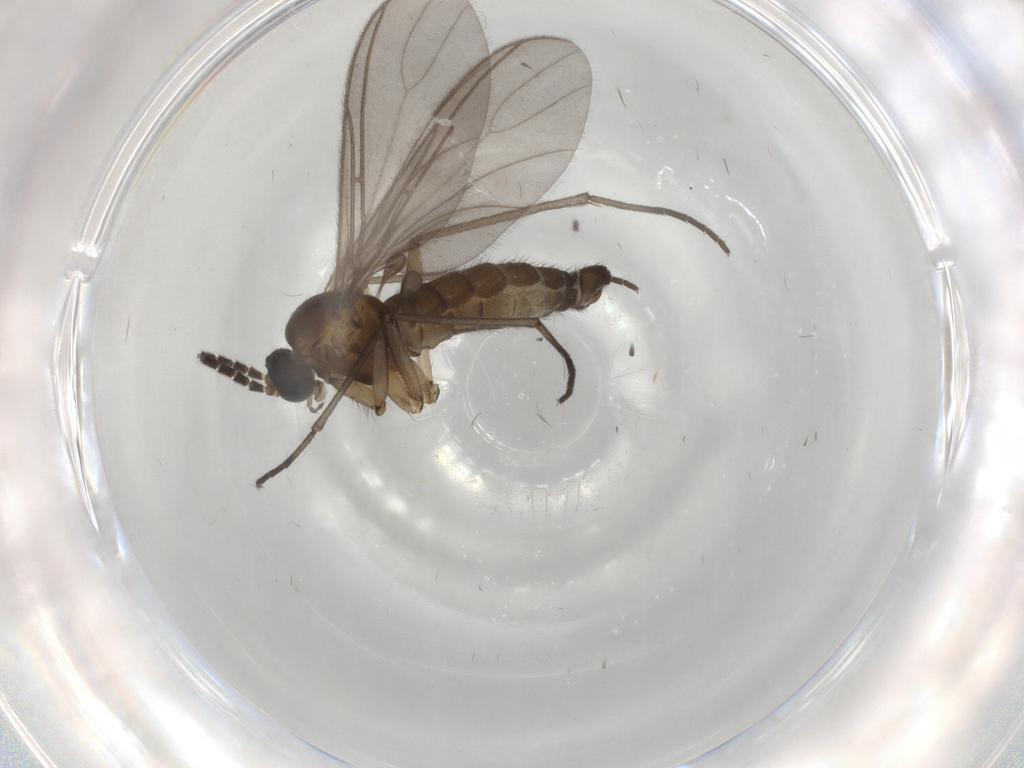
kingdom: Animalia
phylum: Arthropoda
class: Insecta
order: Diptera
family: Sciaridae
